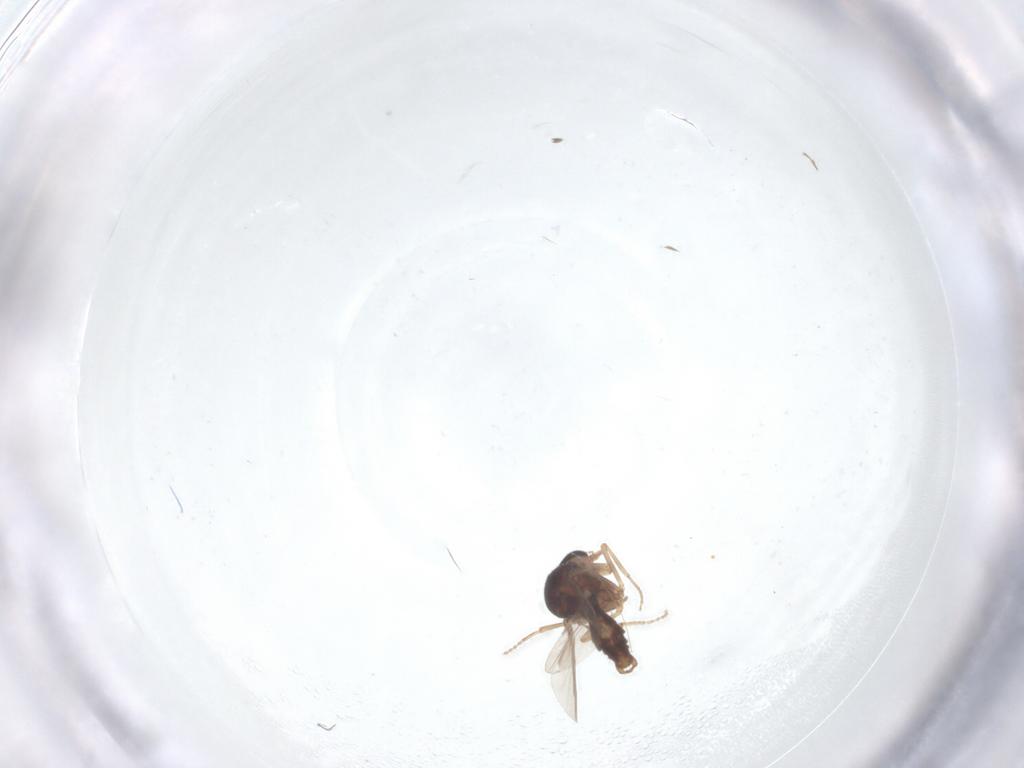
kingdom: Animalia
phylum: Arthropoda
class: Insecta
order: Diptera
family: Ceratopogonidae
